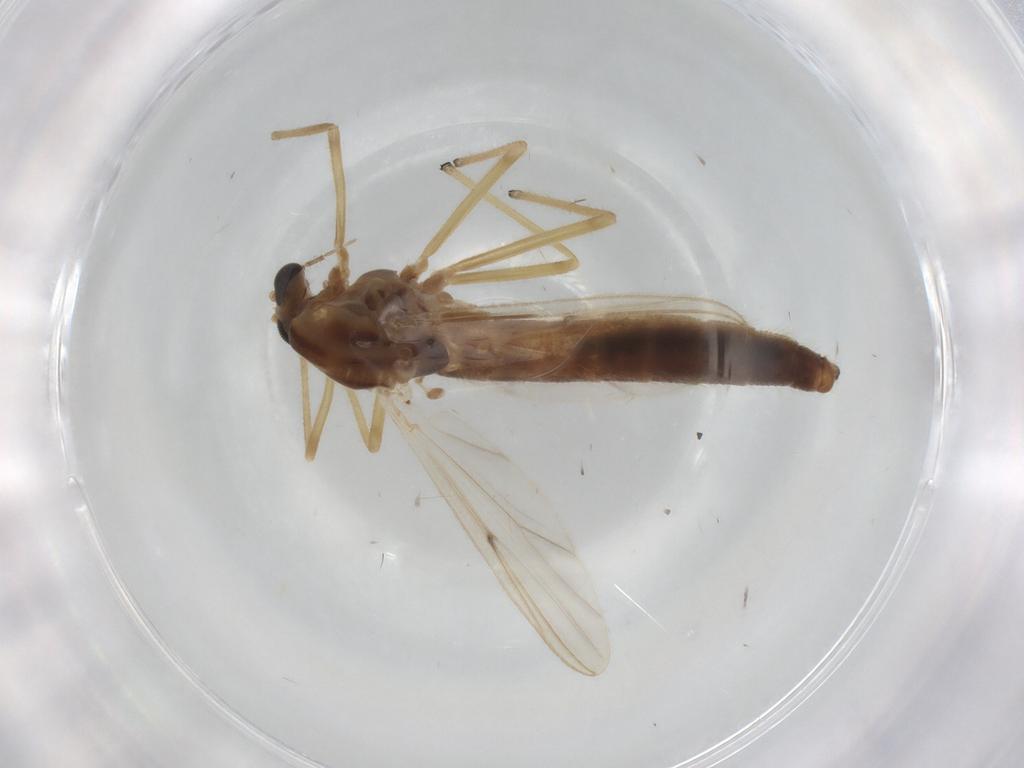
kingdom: Animalia
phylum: Arthropoda
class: Insecta
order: Diptera
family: Chironomidae
